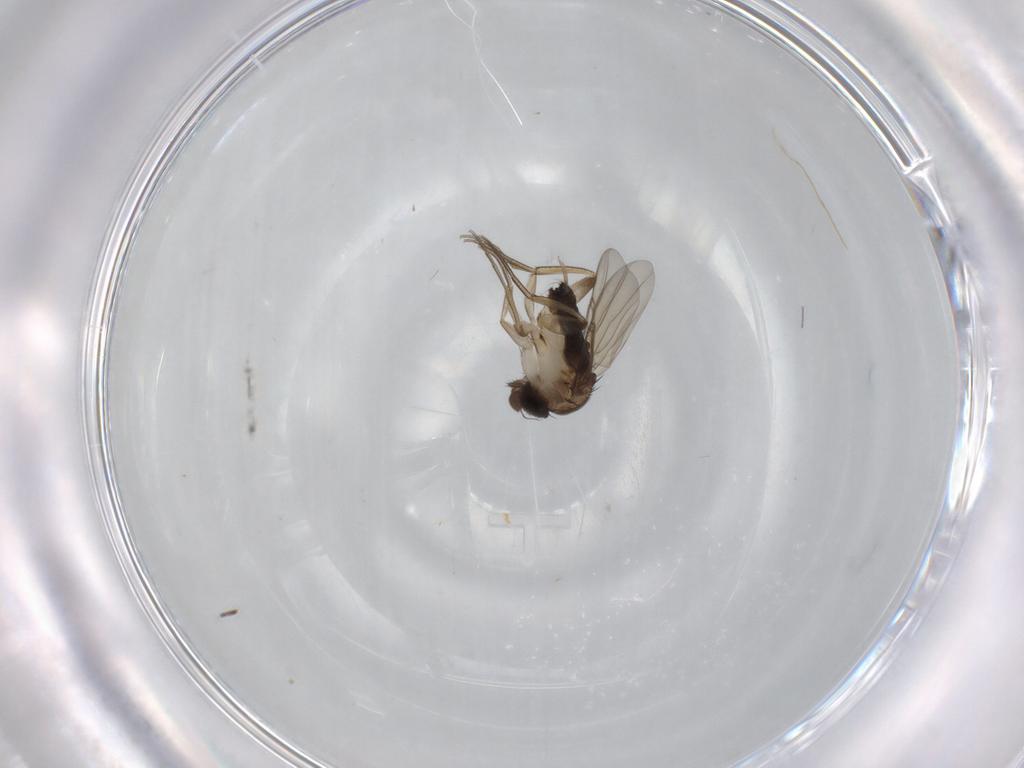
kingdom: Animalia
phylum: Arthropoda
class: Insecta
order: Diptera
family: Phoridae
